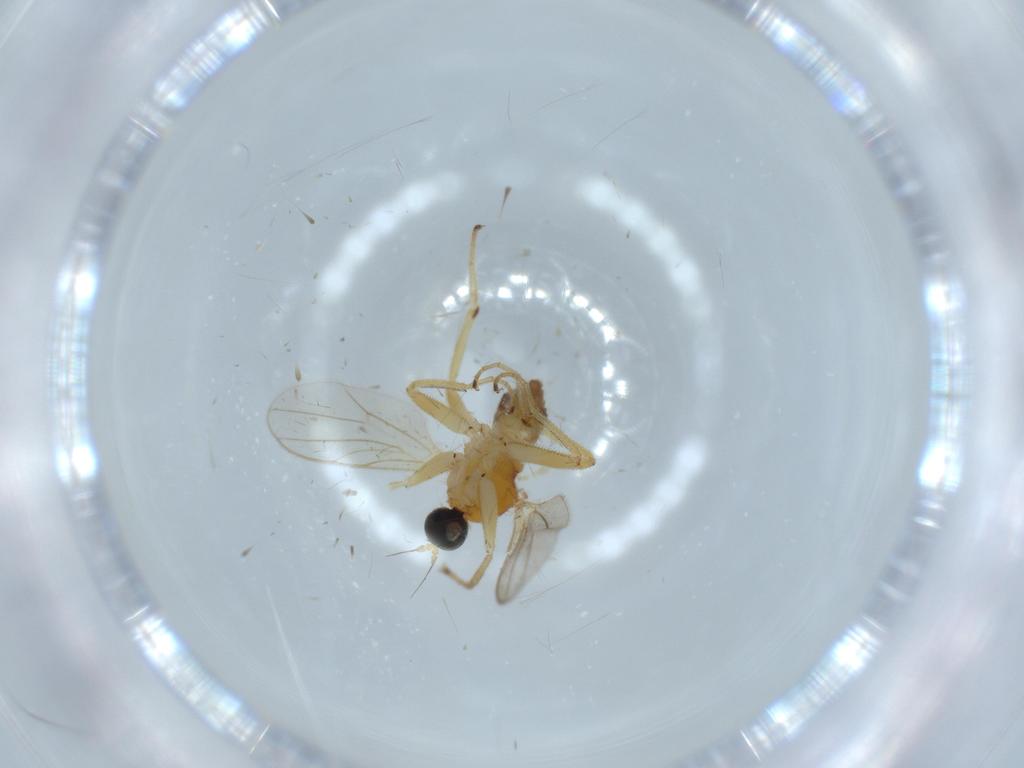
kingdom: Animalia
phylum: Arthropoda
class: Insecta
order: Diptera
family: Hybotidae
